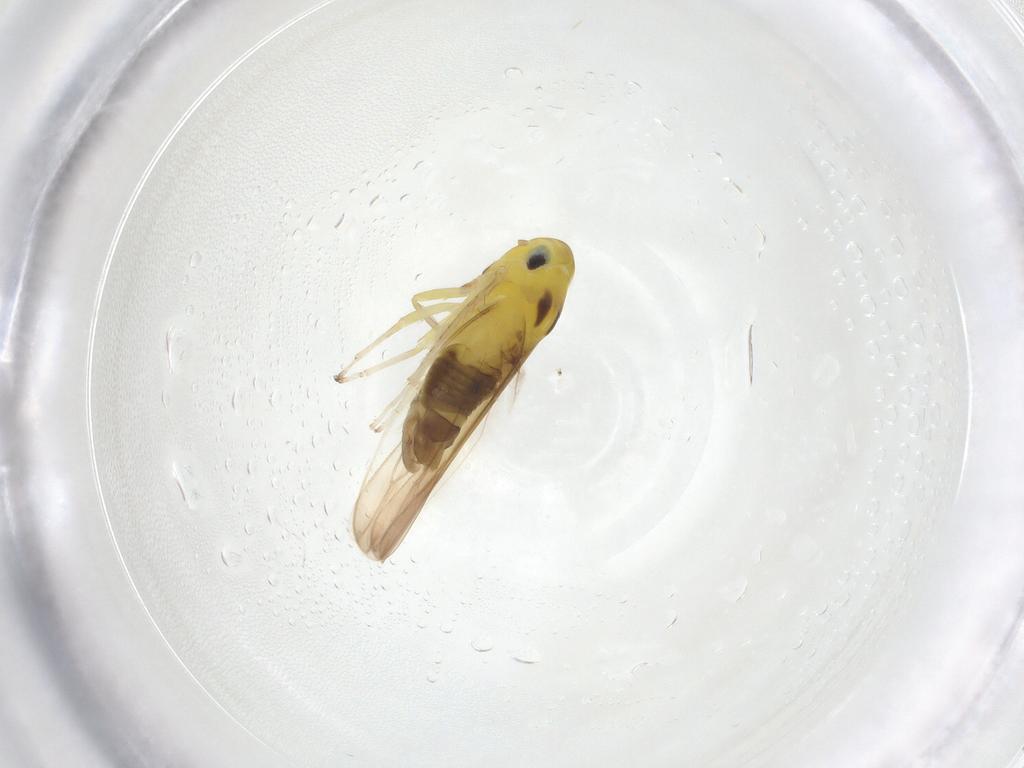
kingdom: Animalia
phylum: Arthropoda
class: Insecta
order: Hemiptera
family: Cicadellidae
